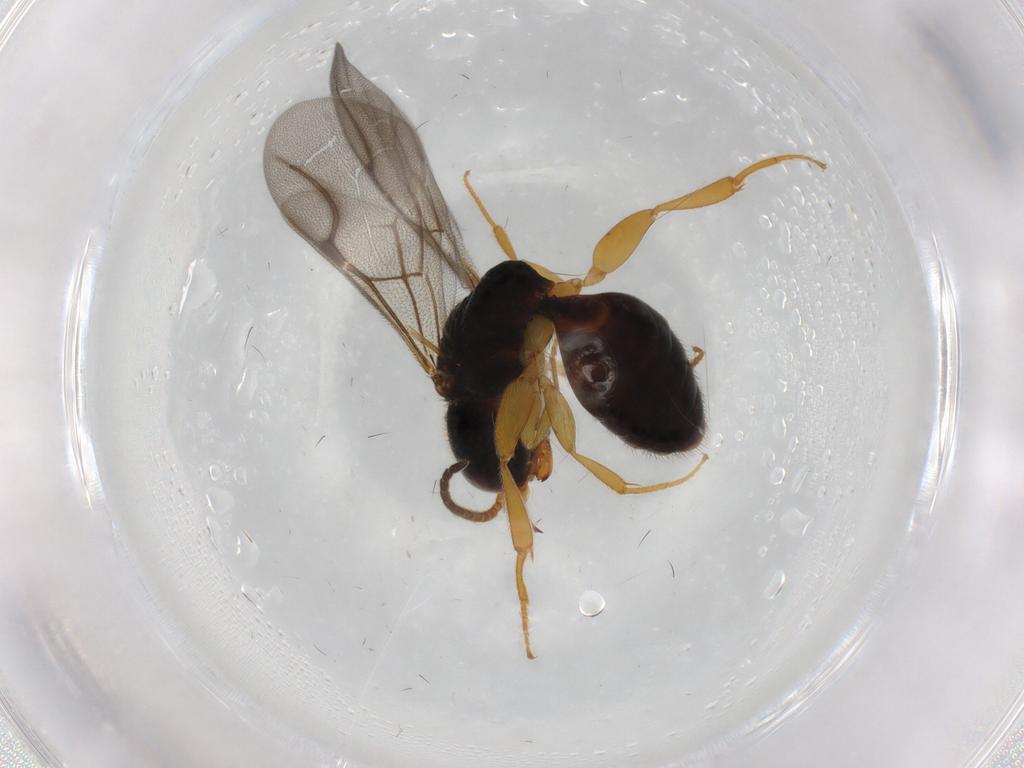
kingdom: Animalia
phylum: Arthropoda
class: Insecta
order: Hymenoptera
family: Bethylidae
